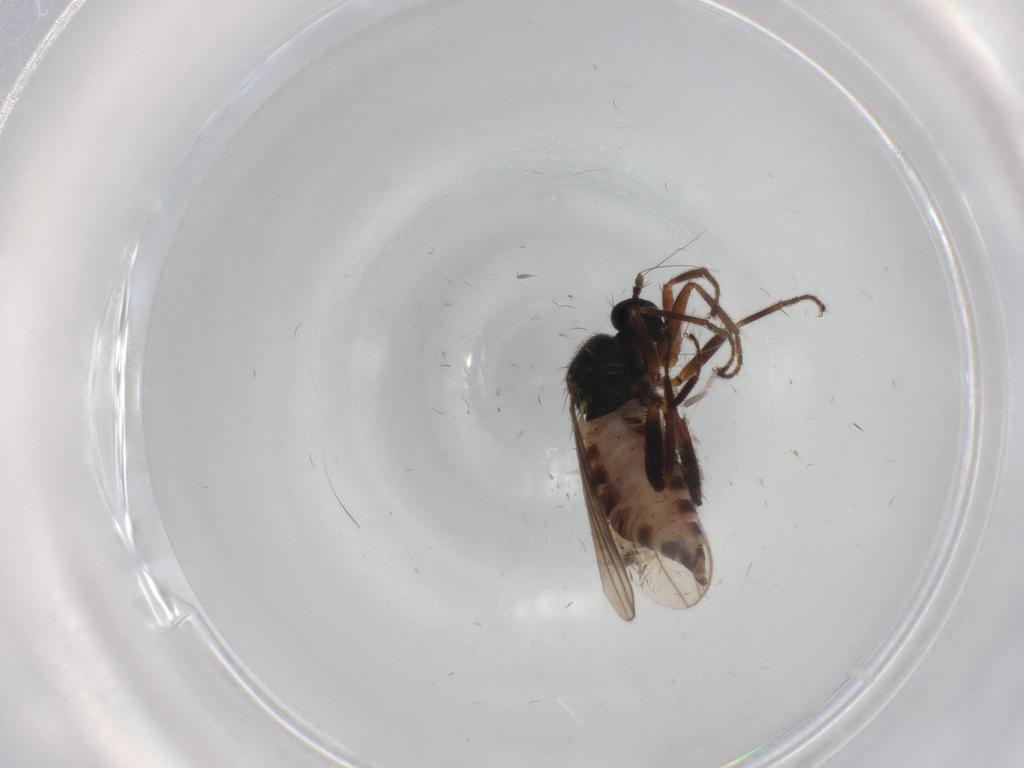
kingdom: Animalia
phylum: Arthropoda
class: Insecta
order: Diptera
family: Hybotidae
